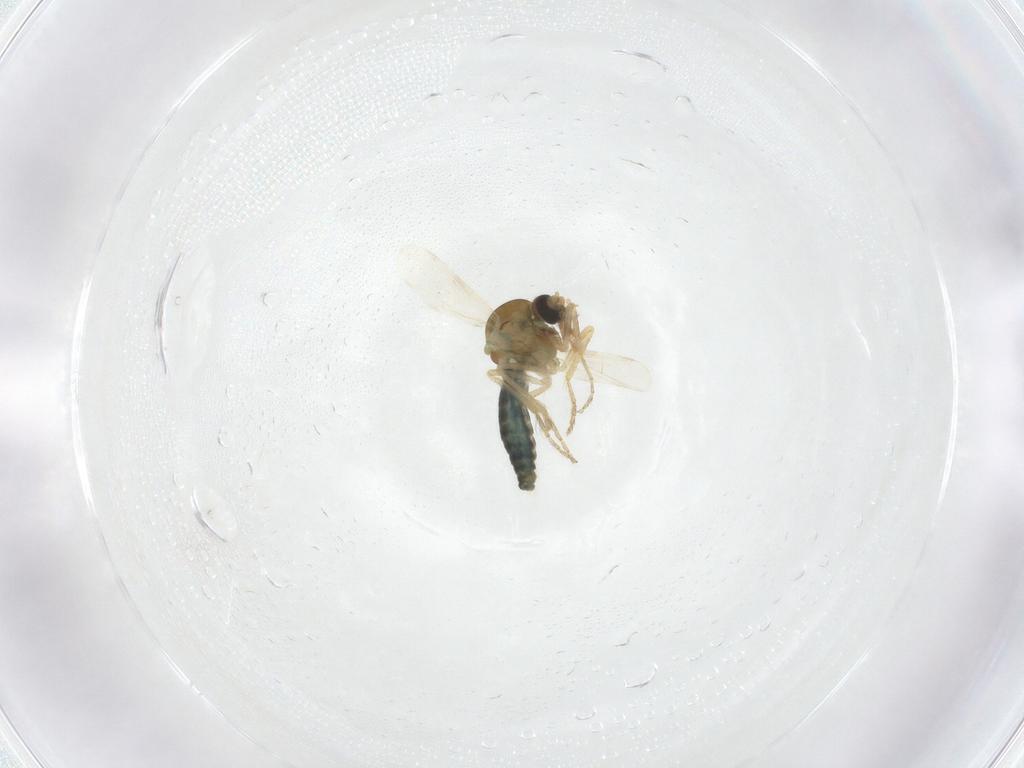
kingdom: Animalia
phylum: Arthropoda
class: Insecta
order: Diptera
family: Ceratopogonidae
